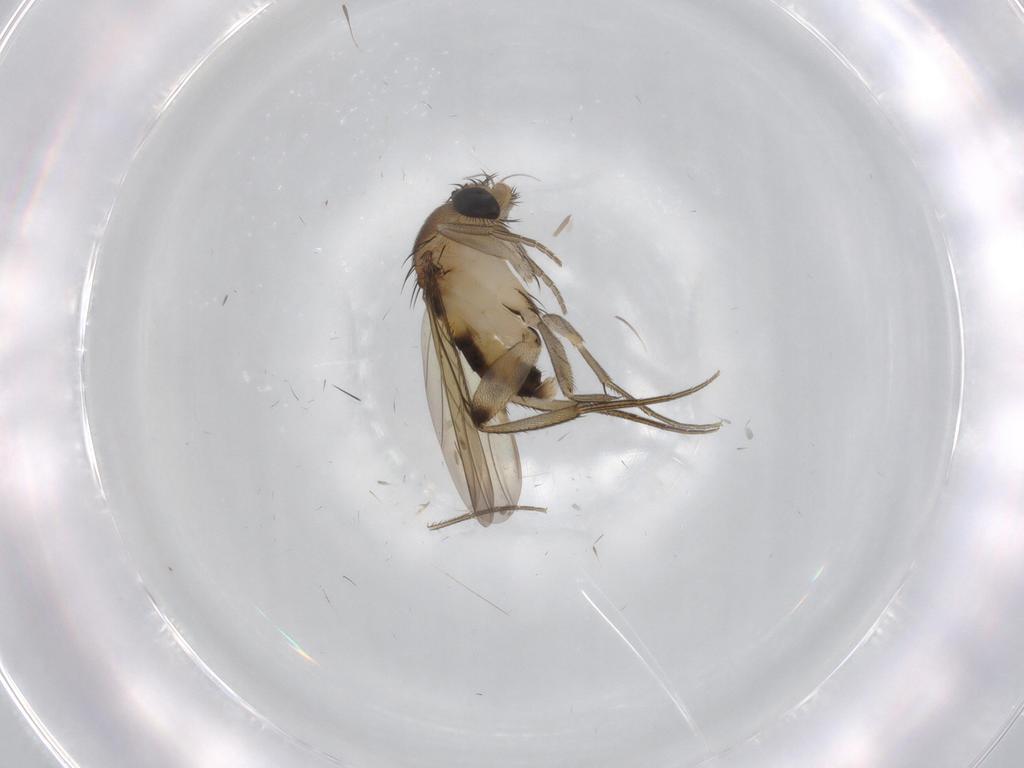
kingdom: Animalia
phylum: Arthropoda
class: Insecta
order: Diptera
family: Phoridae
